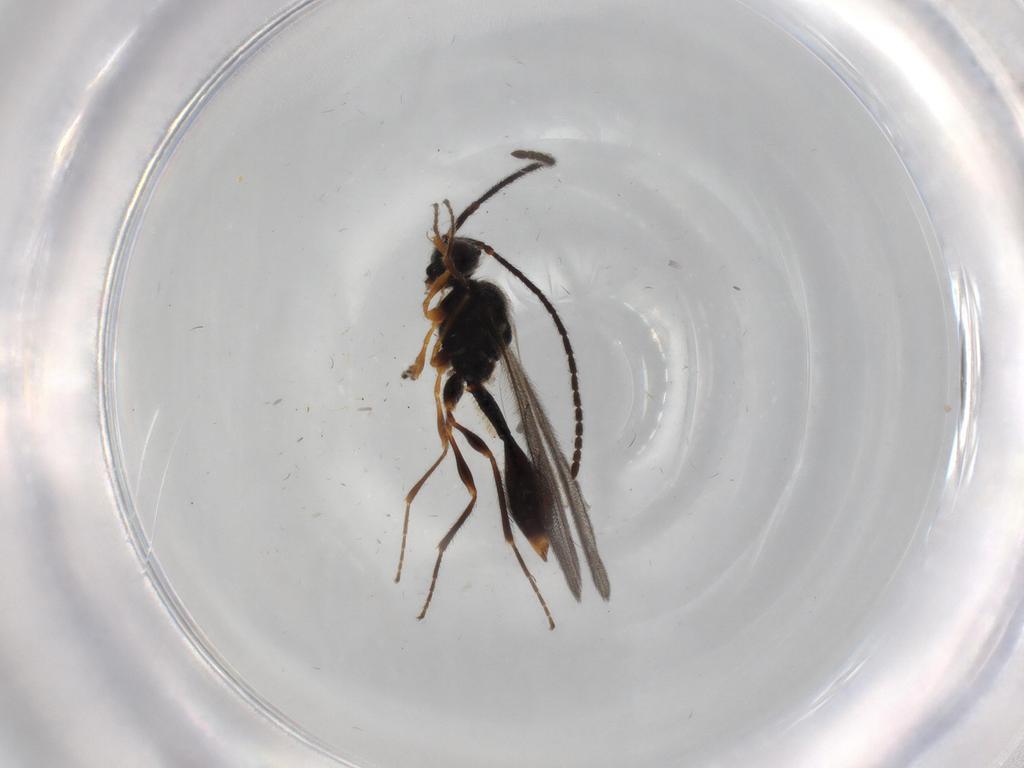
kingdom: Animalia
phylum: Arthropoda
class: Insecta
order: Hymenoptera
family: Diapriidae
